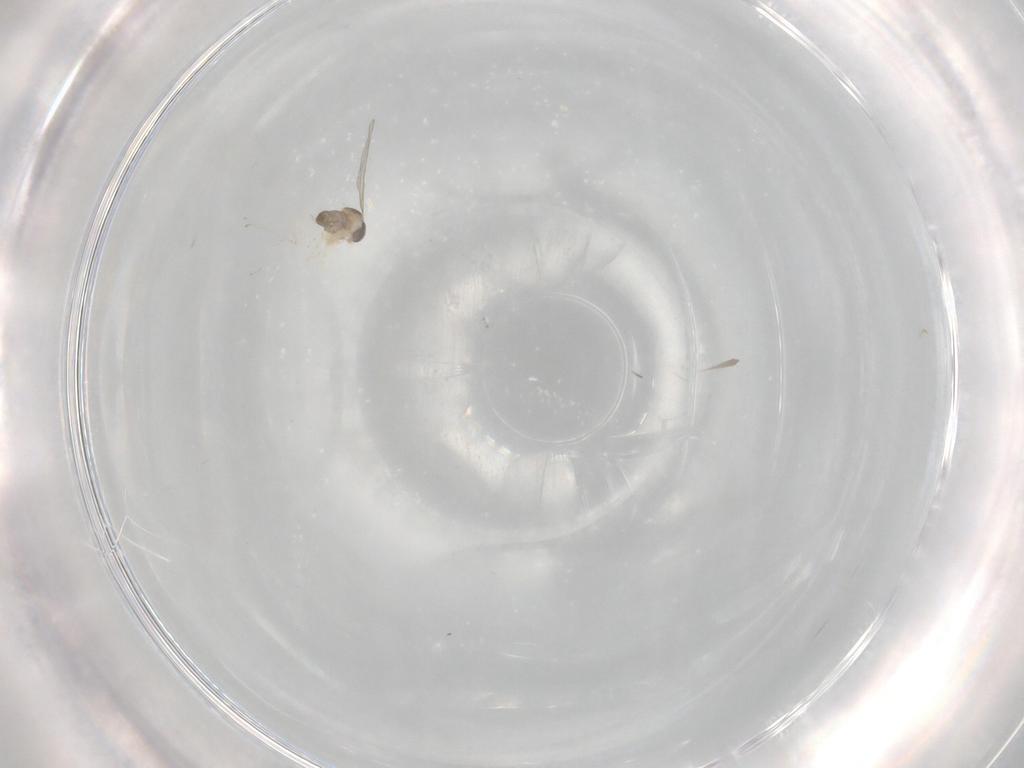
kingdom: Animalia
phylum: Arthropoda
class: Insecta
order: Diptera
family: Cecidomyiidae
